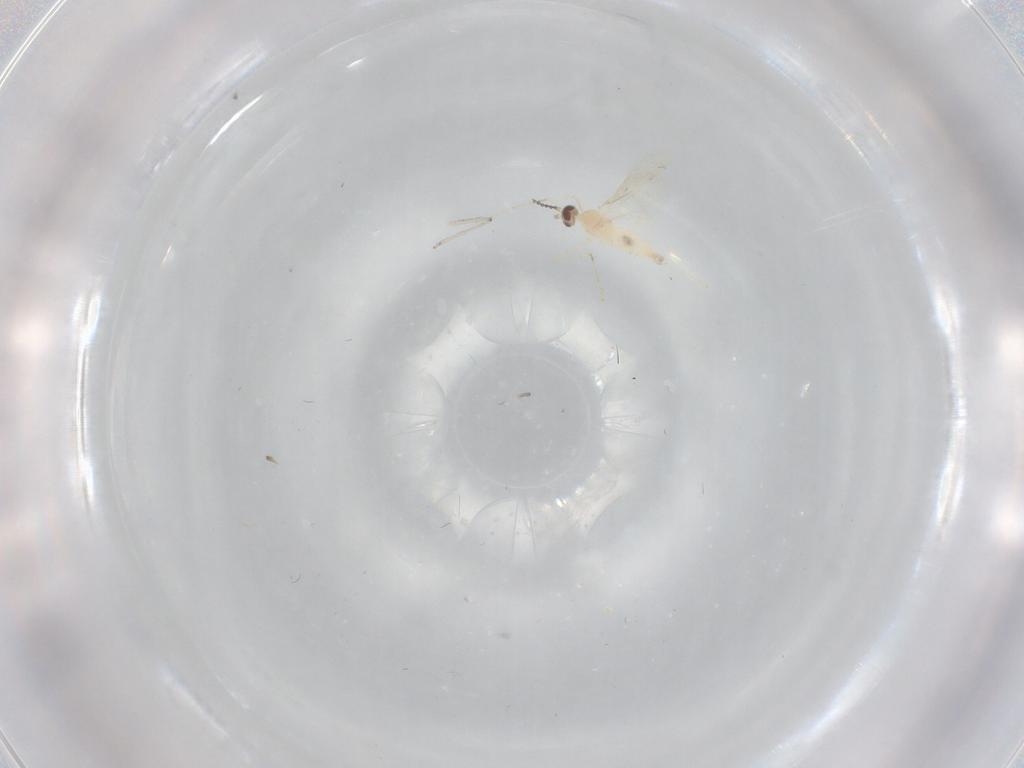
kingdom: Animalia
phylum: Arthropoda
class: Insecta
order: Diptera
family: Cecidomyiidae
